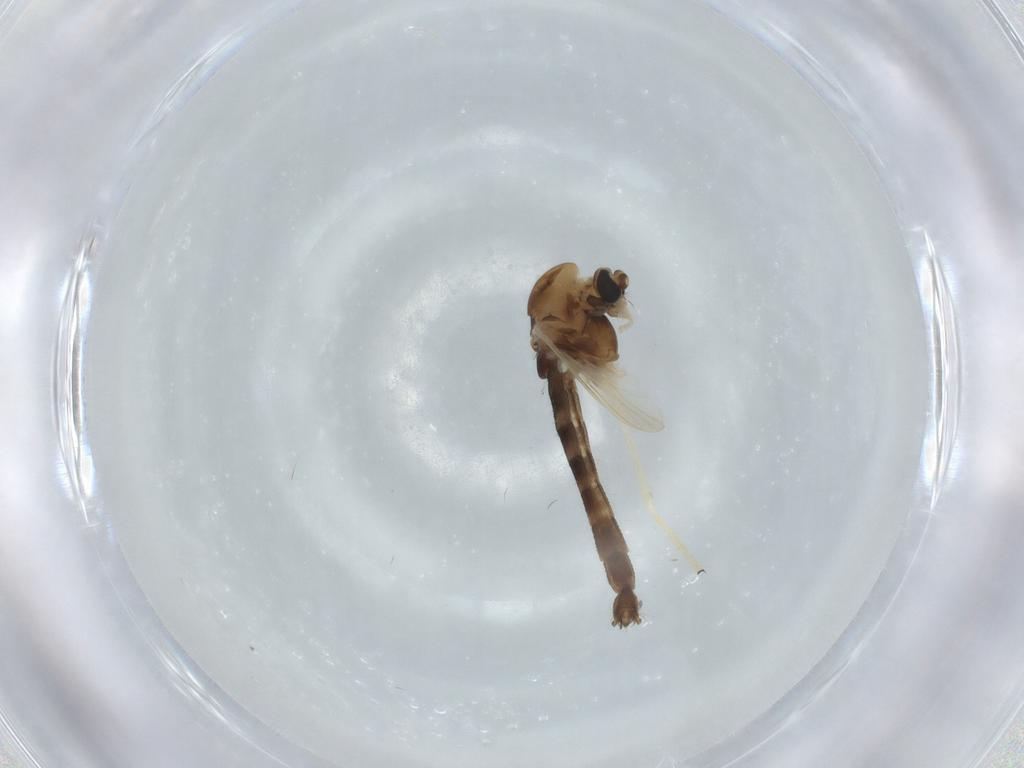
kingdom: Animalia
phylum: Arthropoda
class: Insecta
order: Diptera
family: Chironomidae
